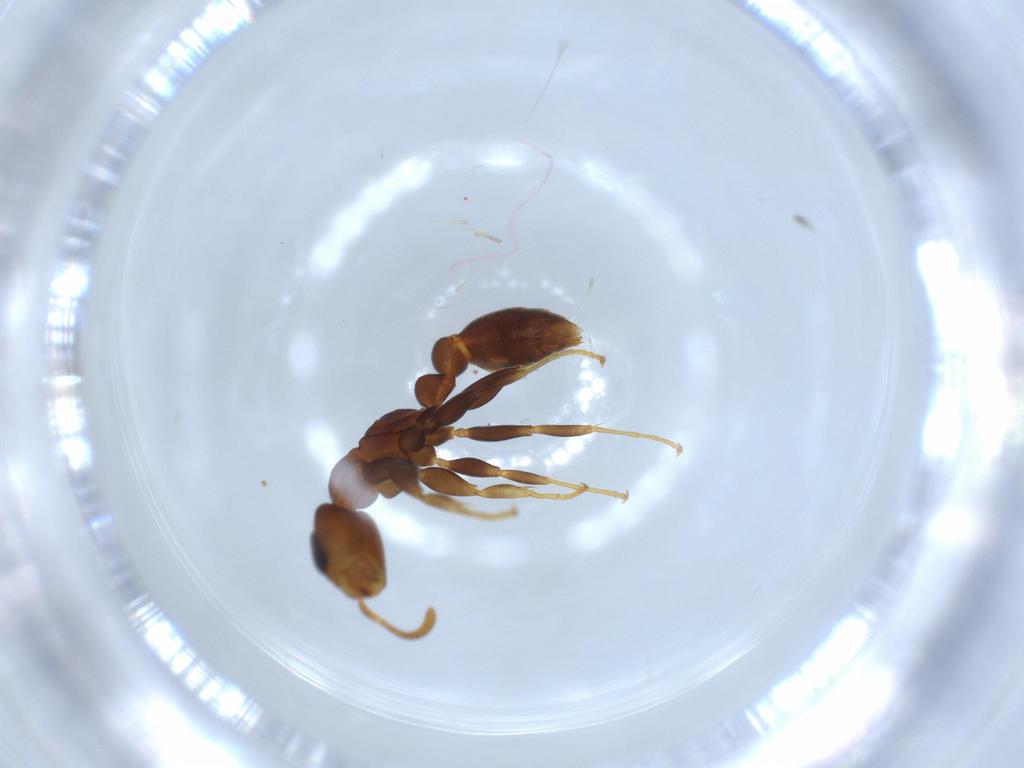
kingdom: Animalia
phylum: Arthropoda
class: Insecta
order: Hymenoptera
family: Formicidae
